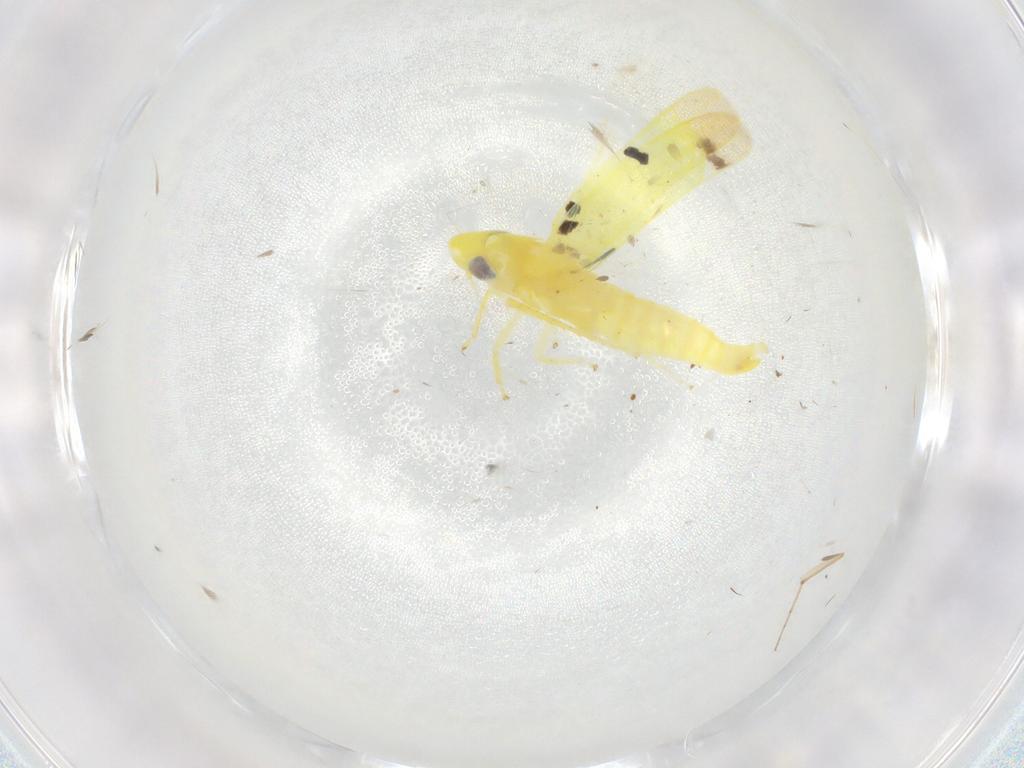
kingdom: Animalia
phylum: Arthropoda
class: Insecta
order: Hemiptera
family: Cicadellidae
